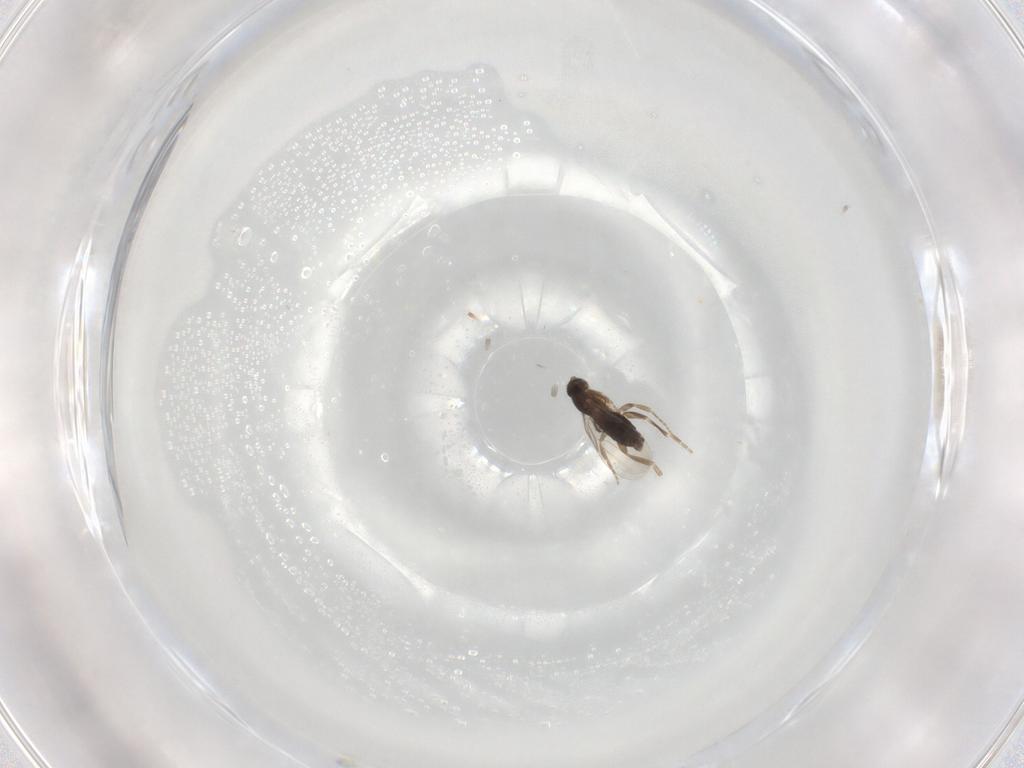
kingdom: Animalia
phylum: Arthropoda
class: Insecta
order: Diptera
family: Phoridae
